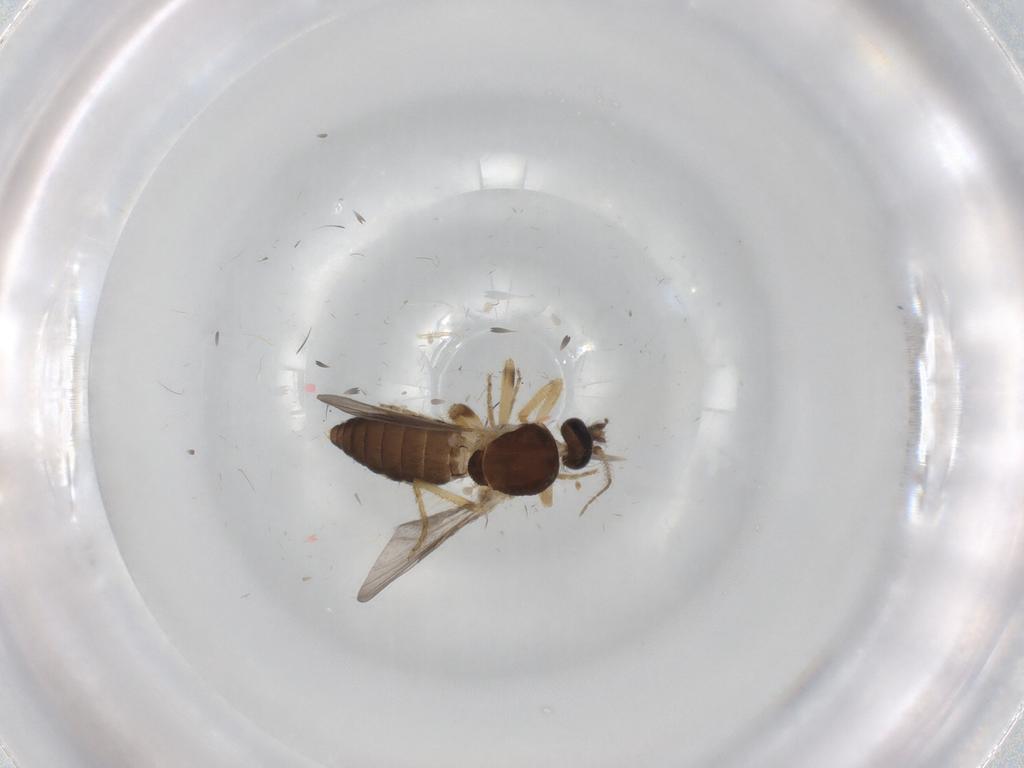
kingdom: Animalia
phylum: Arthropoda
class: Insecta
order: Diptera
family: Ceratopogonidae
